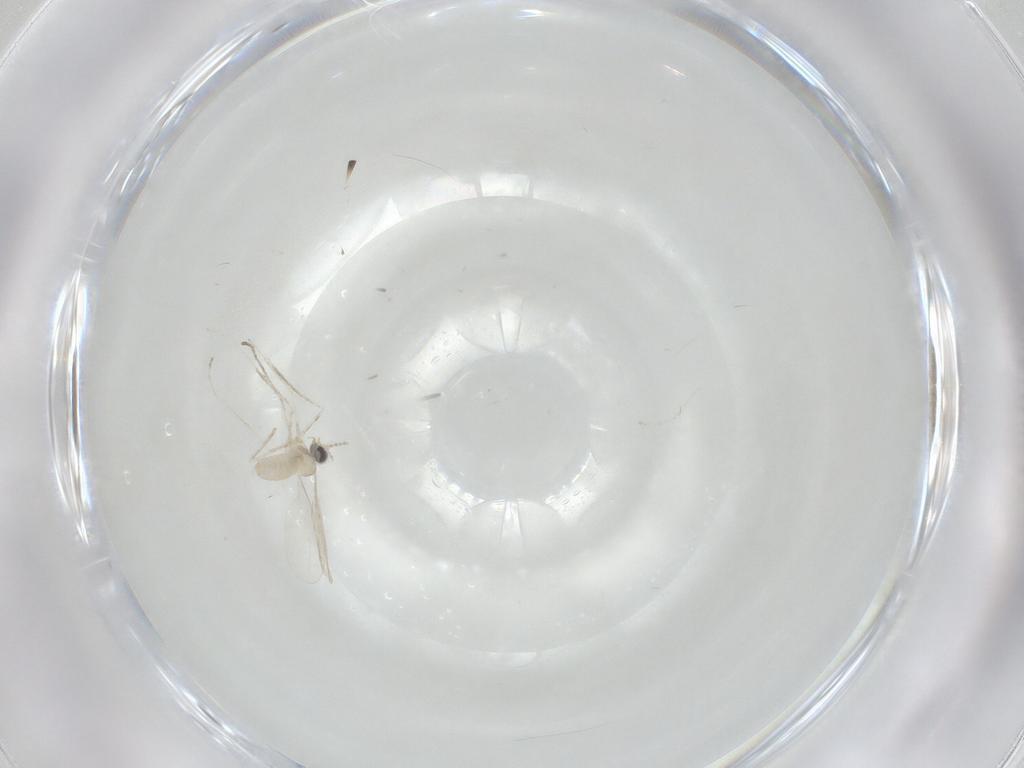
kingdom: Animalia
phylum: Arthropoda
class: Insecta
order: Diptera
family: Cecidomyiidae
